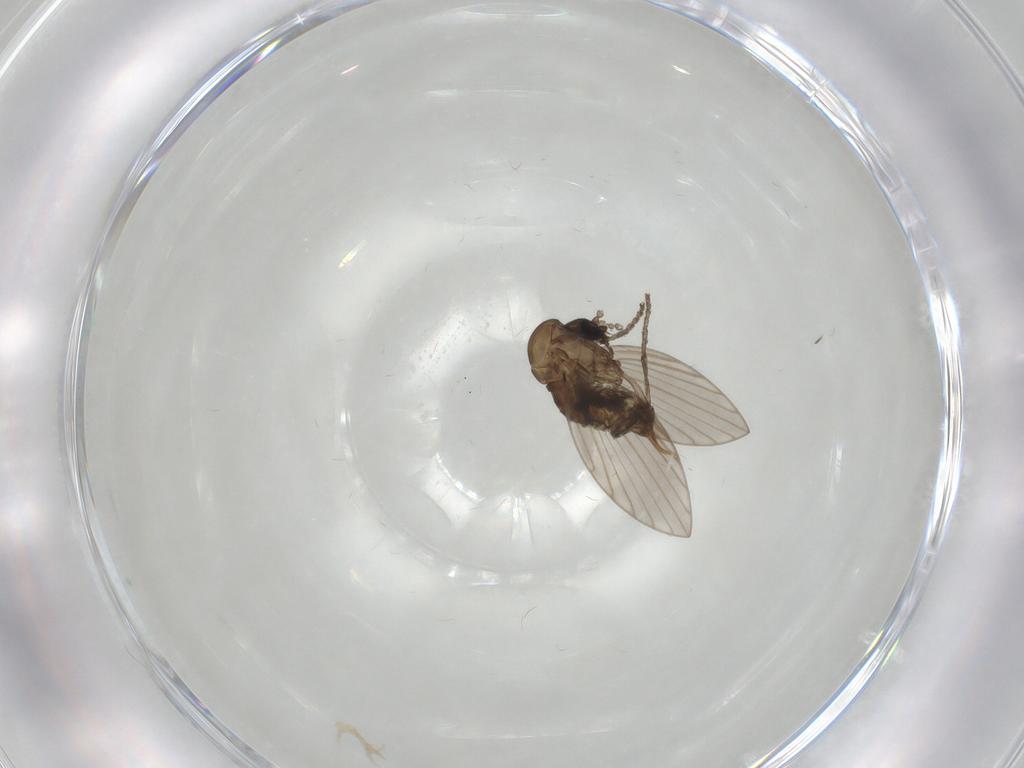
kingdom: Animalia
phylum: Arthropoda
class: Insecta
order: Diptera
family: Psychodidae
